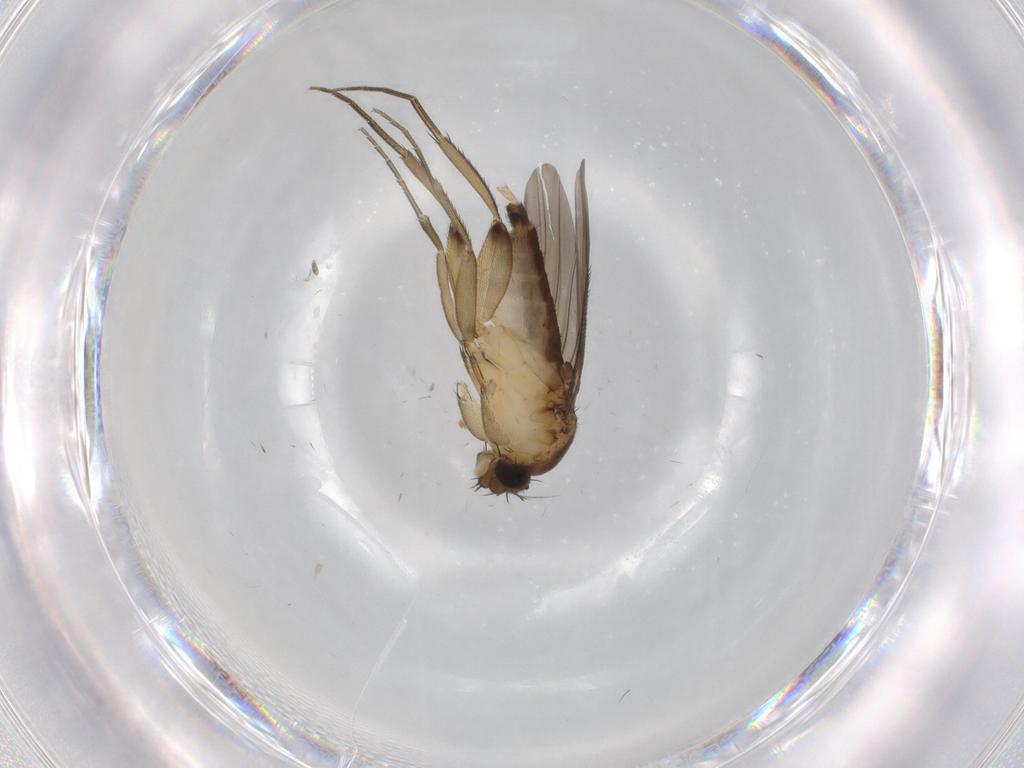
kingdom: Animalia
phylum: Arthropoda
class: Insecta
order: Diptera
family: Phoridae
